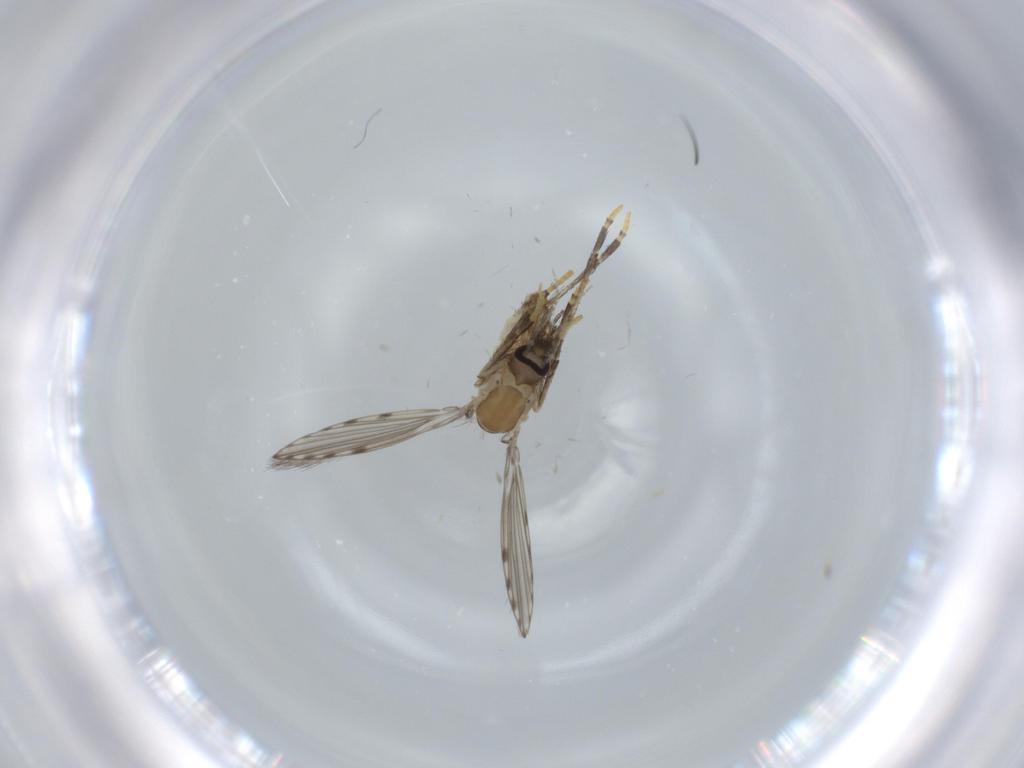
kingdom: Animalia
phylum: Arthropoda
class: Insecta
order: Diptera
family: Psychodidae
